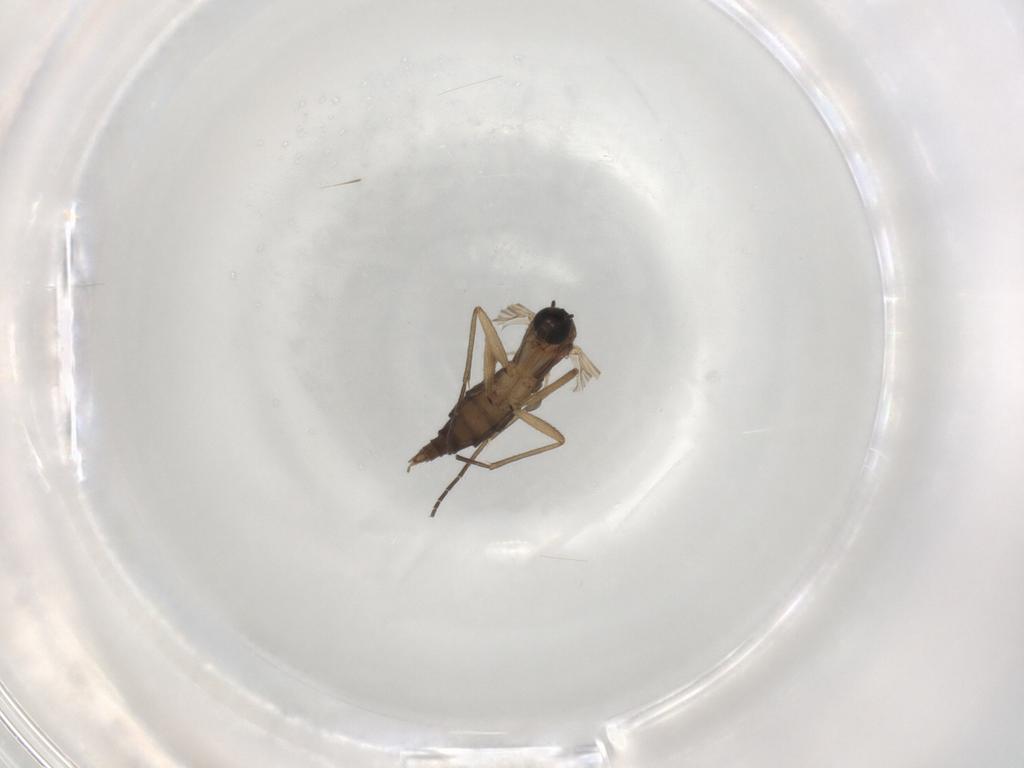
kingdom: Animalia
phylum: Arthropoda
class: Insecta
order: Diptera
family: Sciaridae
